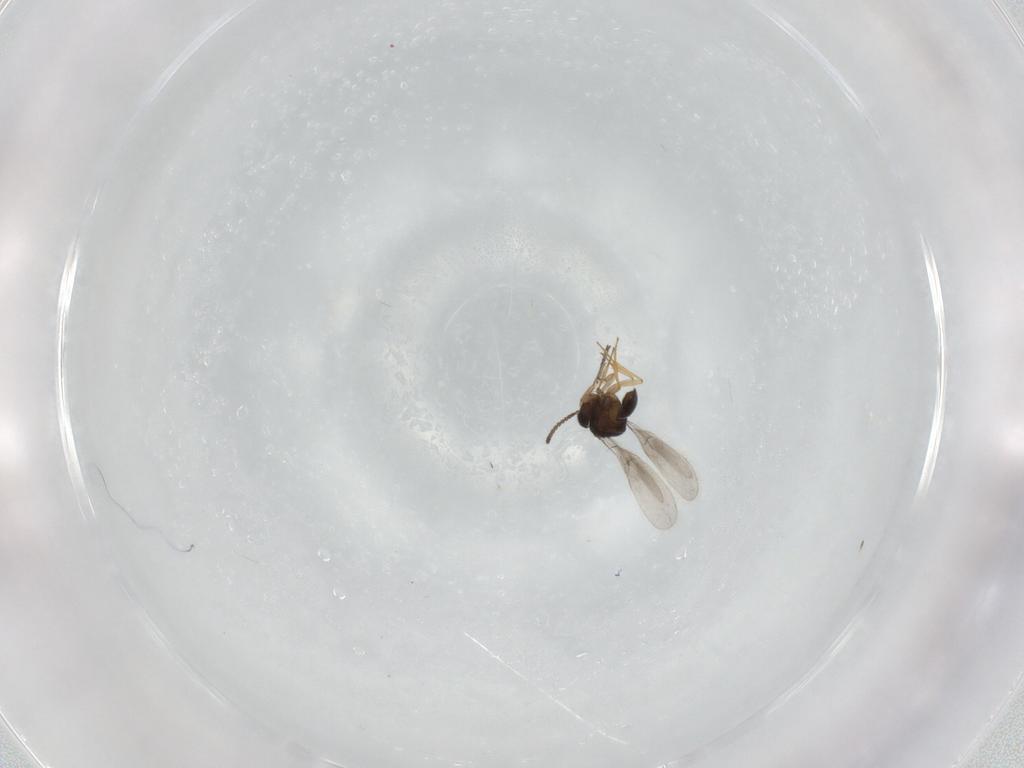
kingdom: Animalia
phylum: Arthropoda
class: Insecta
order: Hymenoptera
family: Scelionidae
